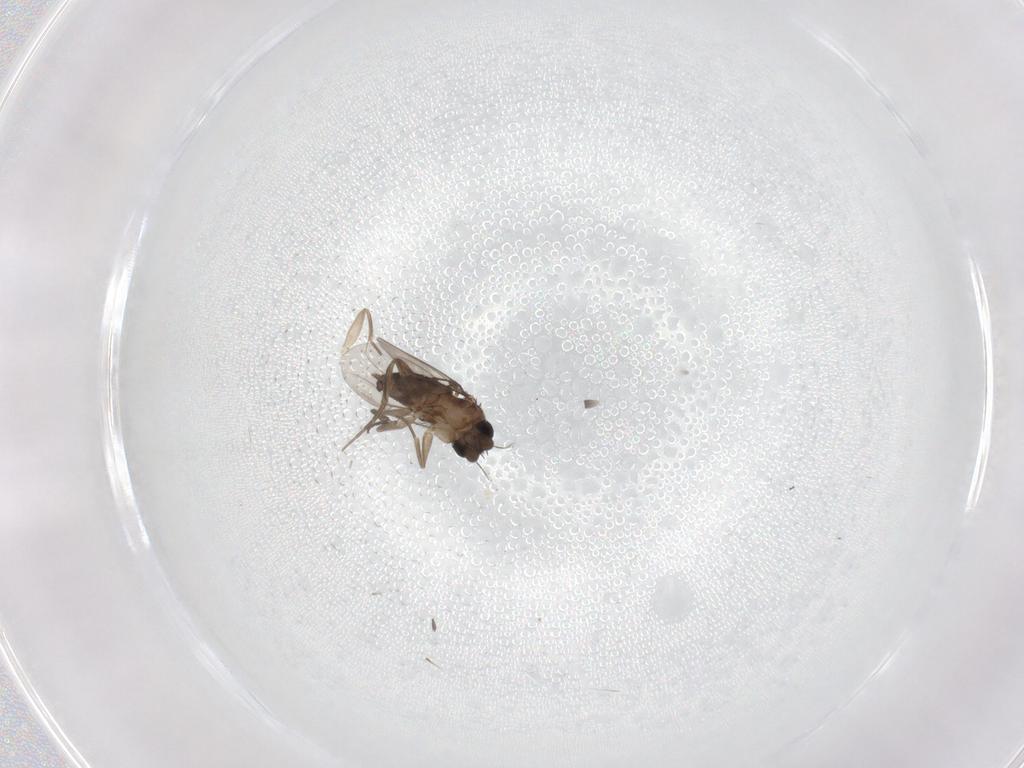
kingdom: Animalia
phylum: Arthropoda
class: Insecta
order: Diptera
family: Phoridae
